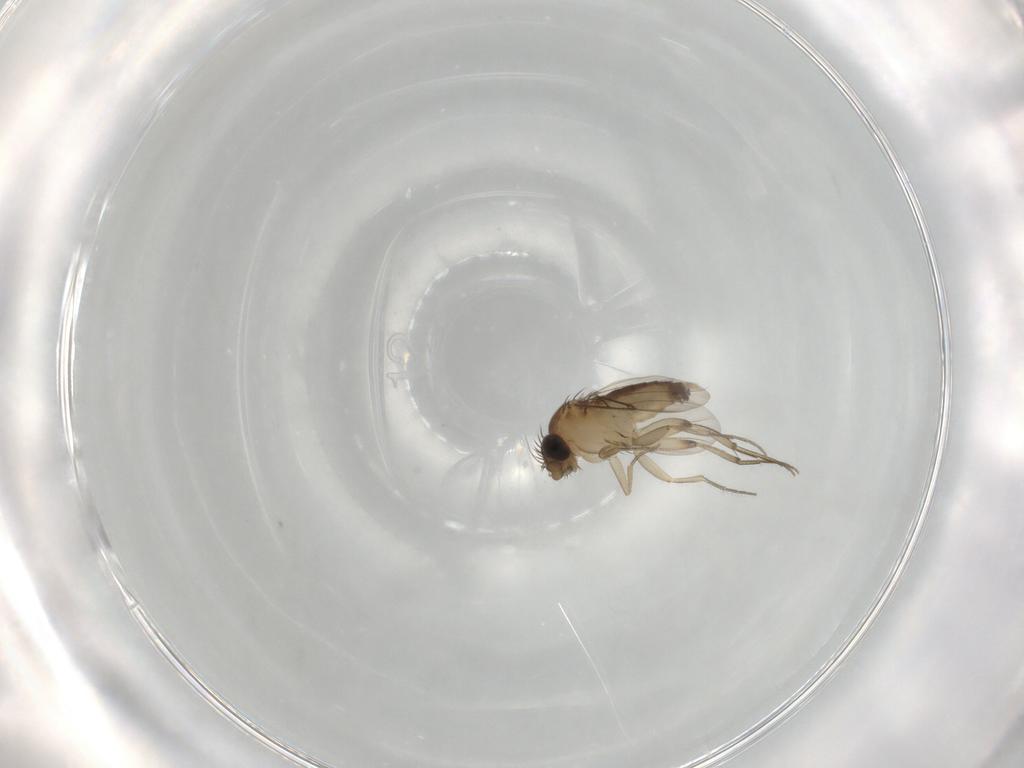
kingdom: Animalia
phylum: Arthropoda
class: Insecta
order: Diptera
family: Phoridae
